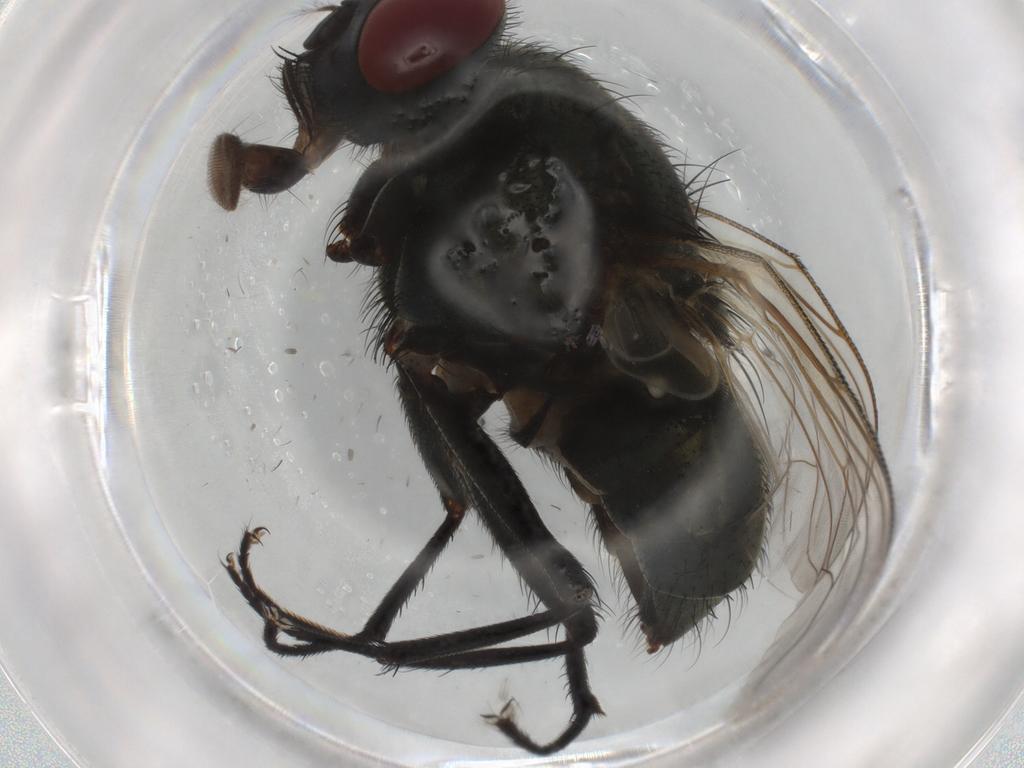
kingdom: Animalia
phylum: Arthropoda
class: Insecta
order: Diptera
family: Muscidae
